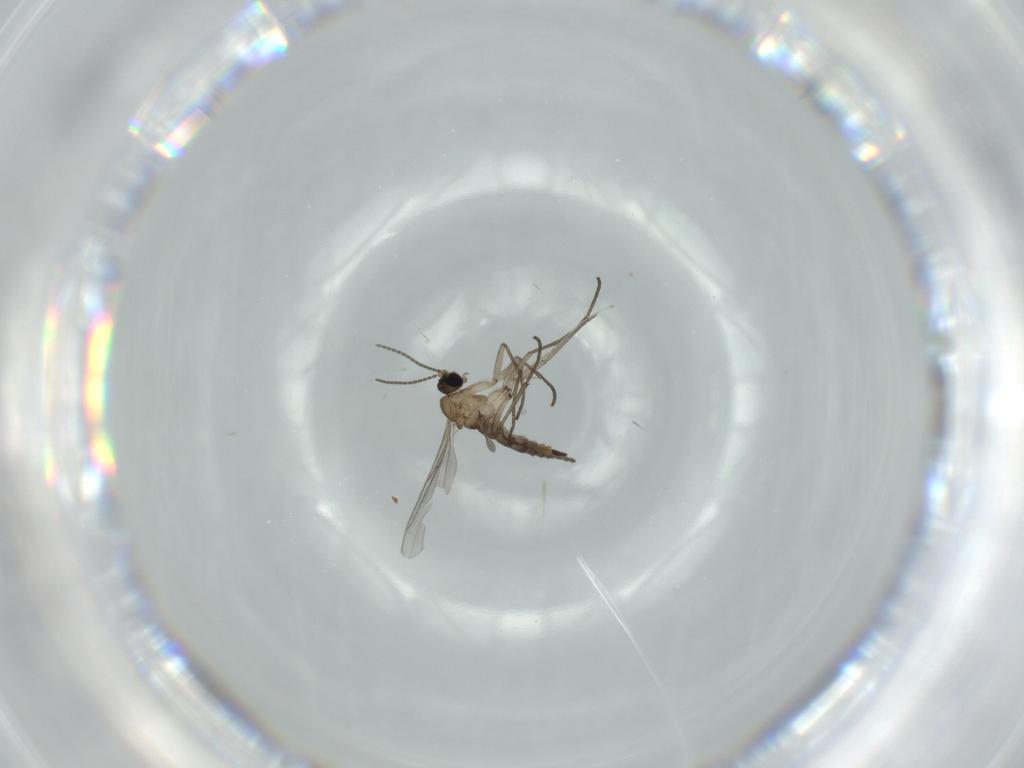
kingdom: Animalia
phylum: Arthropoda
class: Insecta
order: Diptera
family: Sciaridae
